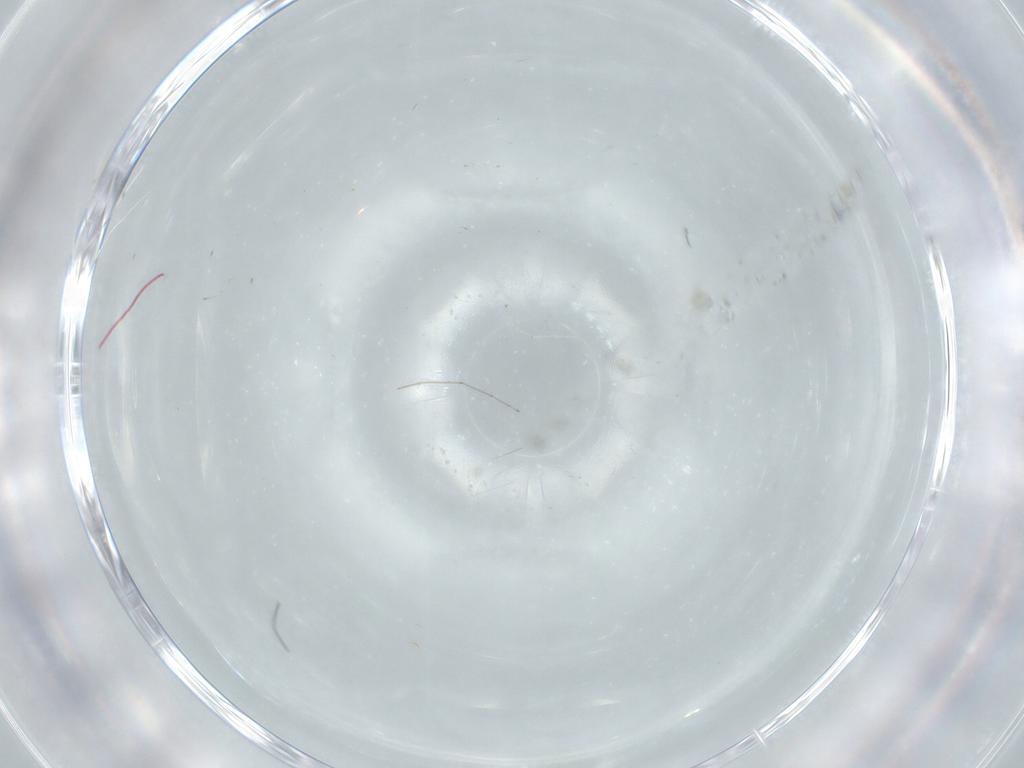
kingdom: Animalia
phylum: Arthropoda
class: Insecta
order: Diptera
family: Cecidomyiidae
